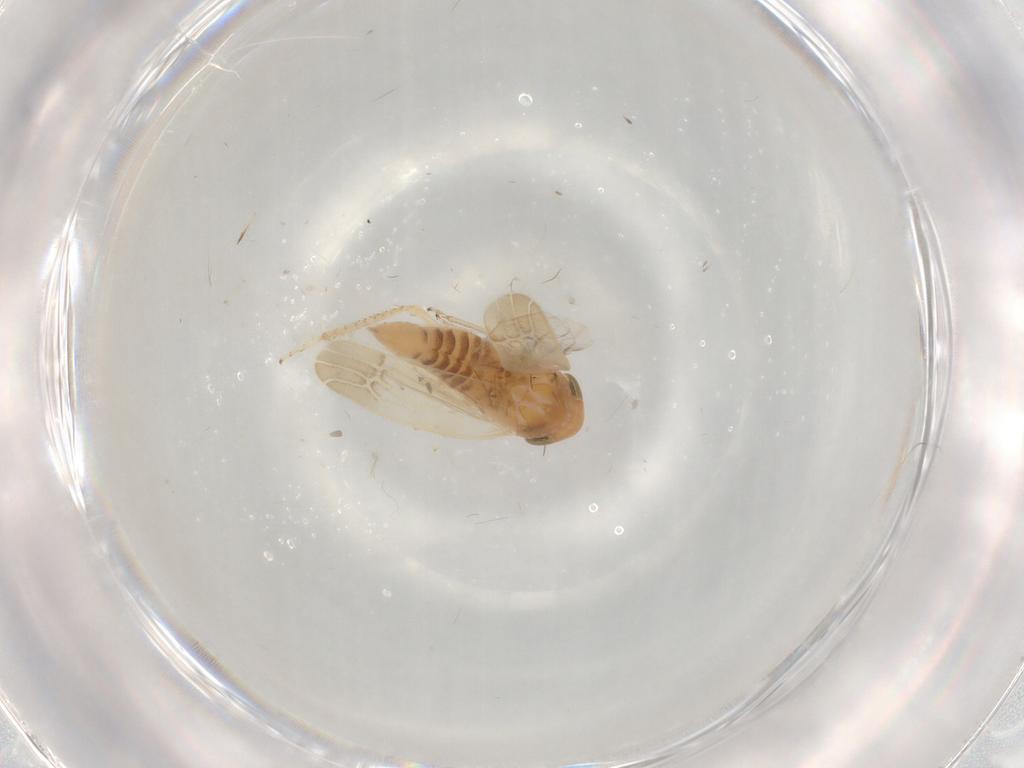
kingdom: Animalia
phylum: Arthropoda
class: Insecta
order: Hemiptera
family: Cicadellidae
